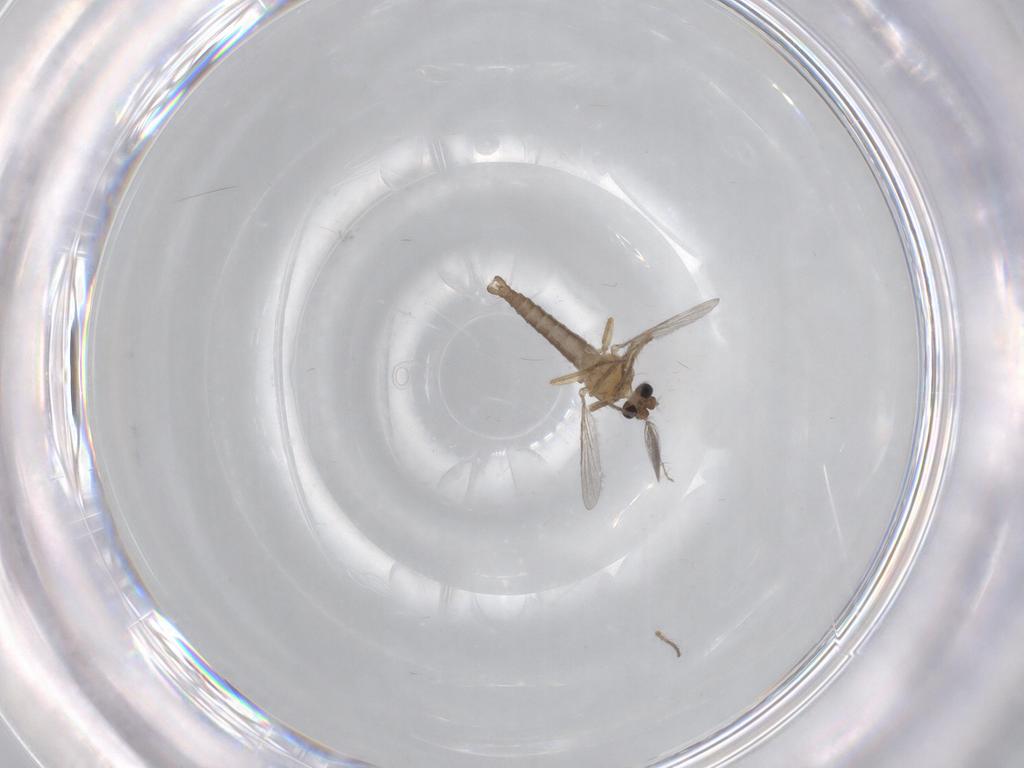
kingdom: Animalia
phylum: Arthropoda
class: Insecta
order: Diptera
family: Ceratopogonidae
